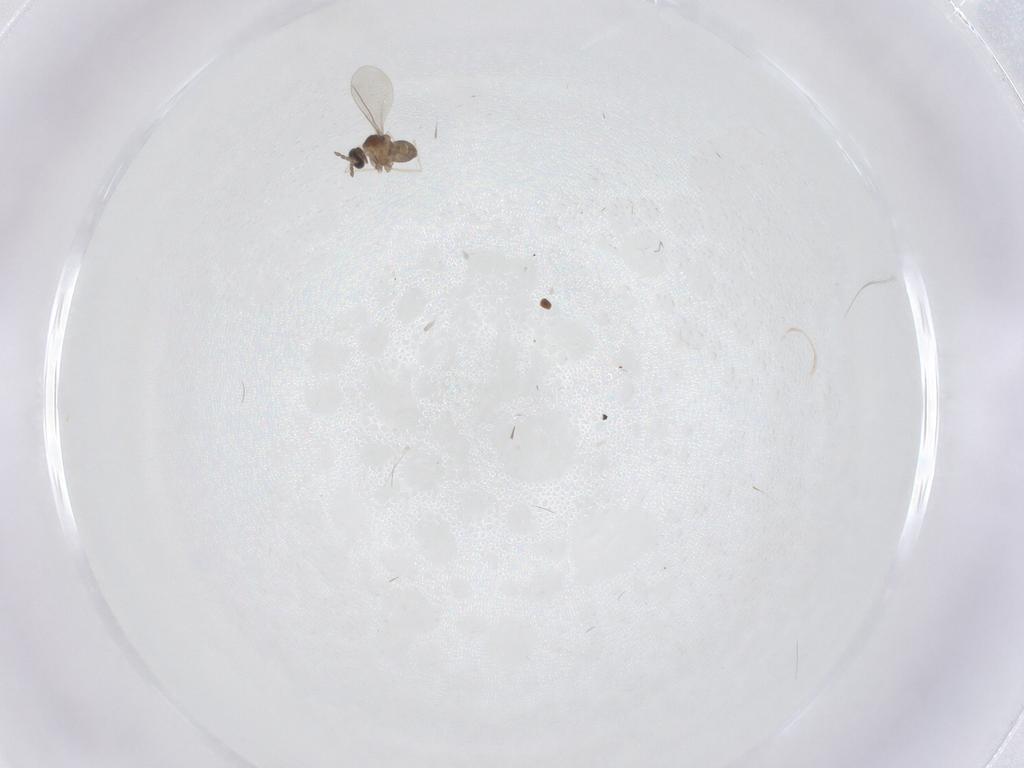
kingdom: Animalia
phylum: Arthropoda
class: Insecta
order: Diptera
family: Cecidomyiidae
